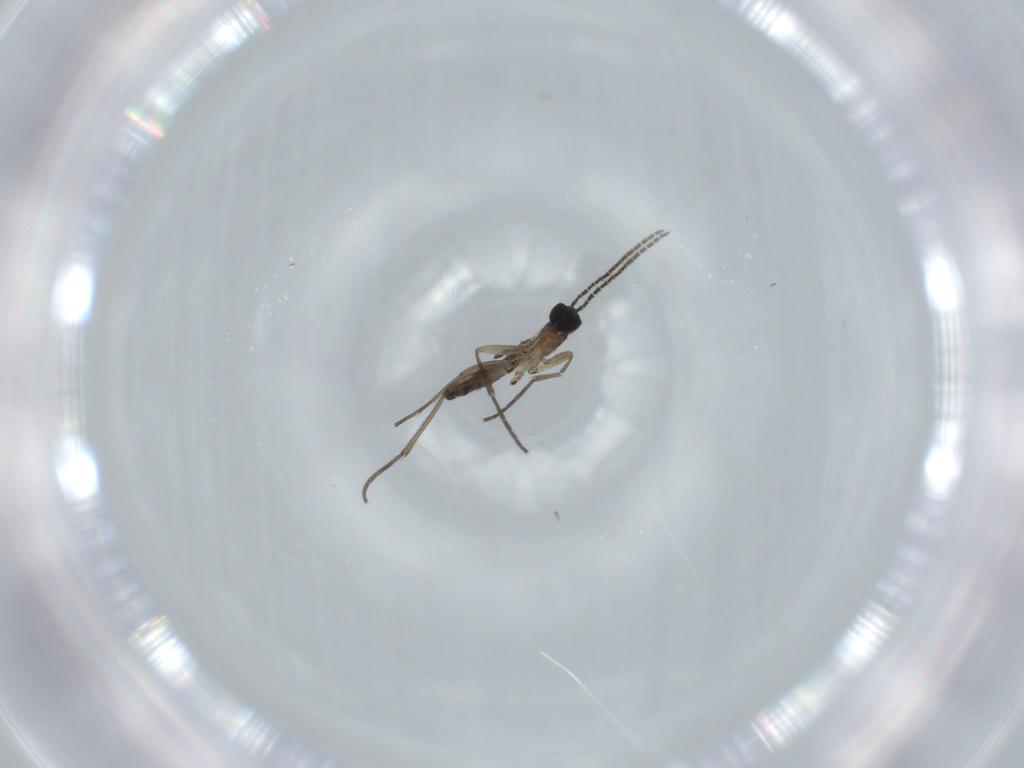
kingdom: Animalia
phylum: Arthropoda
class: Insecta
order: Diptera
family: Sciaridae
